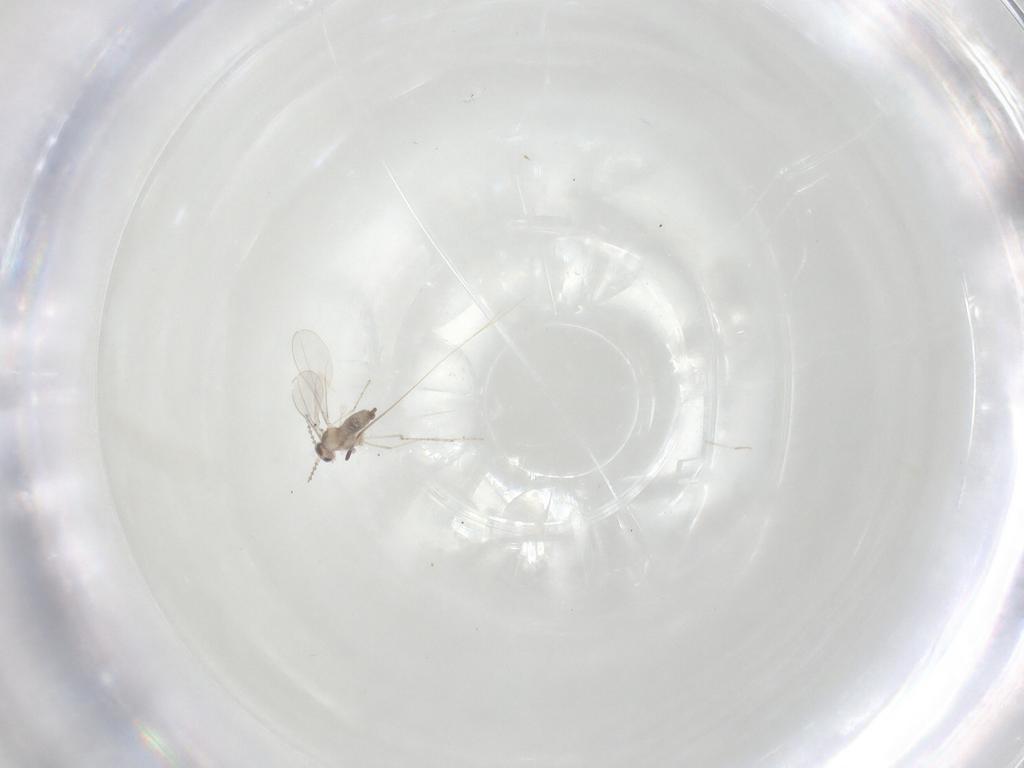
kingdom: Animalia
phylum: Arthropoda
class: Insecta
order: Diptera
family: Cecidomyiidae
